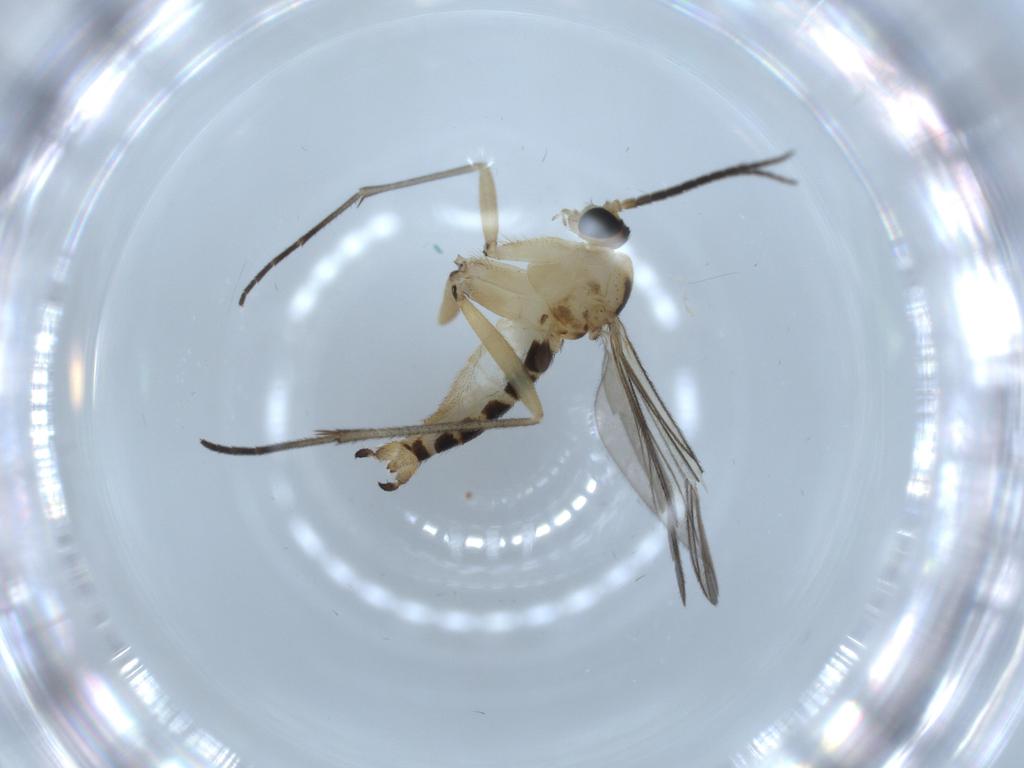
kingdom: Animalia
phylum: Arthropoda
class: Insecta
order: Diptera
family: Sciaridae
